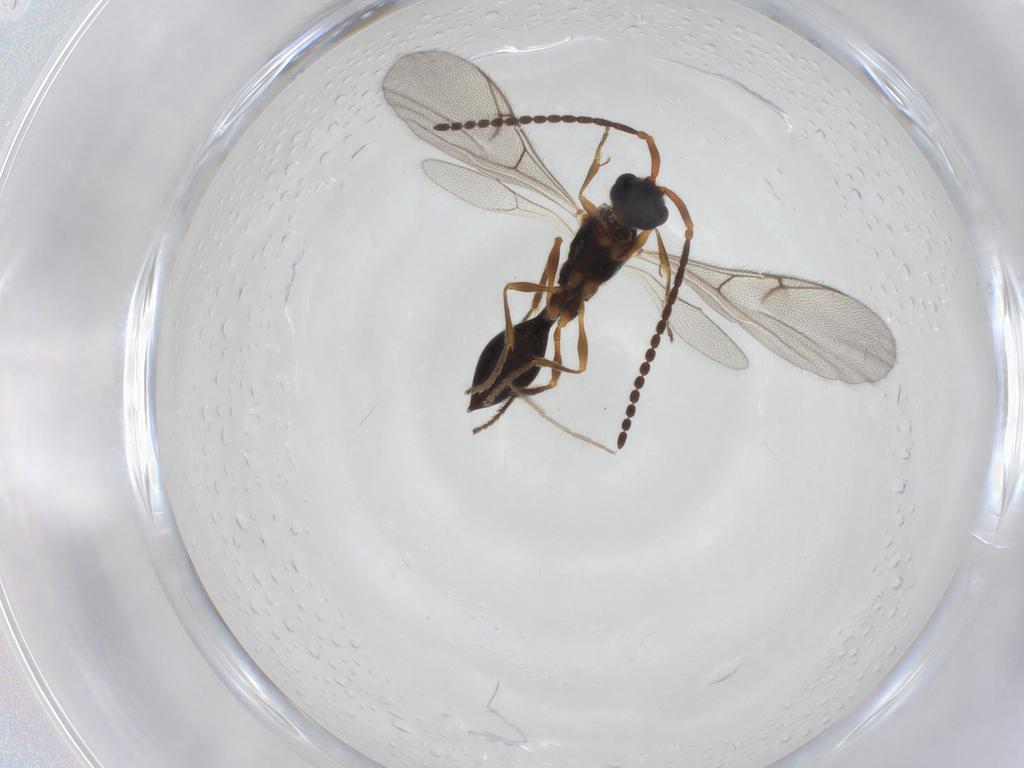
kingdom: Animalia
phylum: Arthropoda
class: Insecta
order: Hymenoptera
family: Diapriidae
